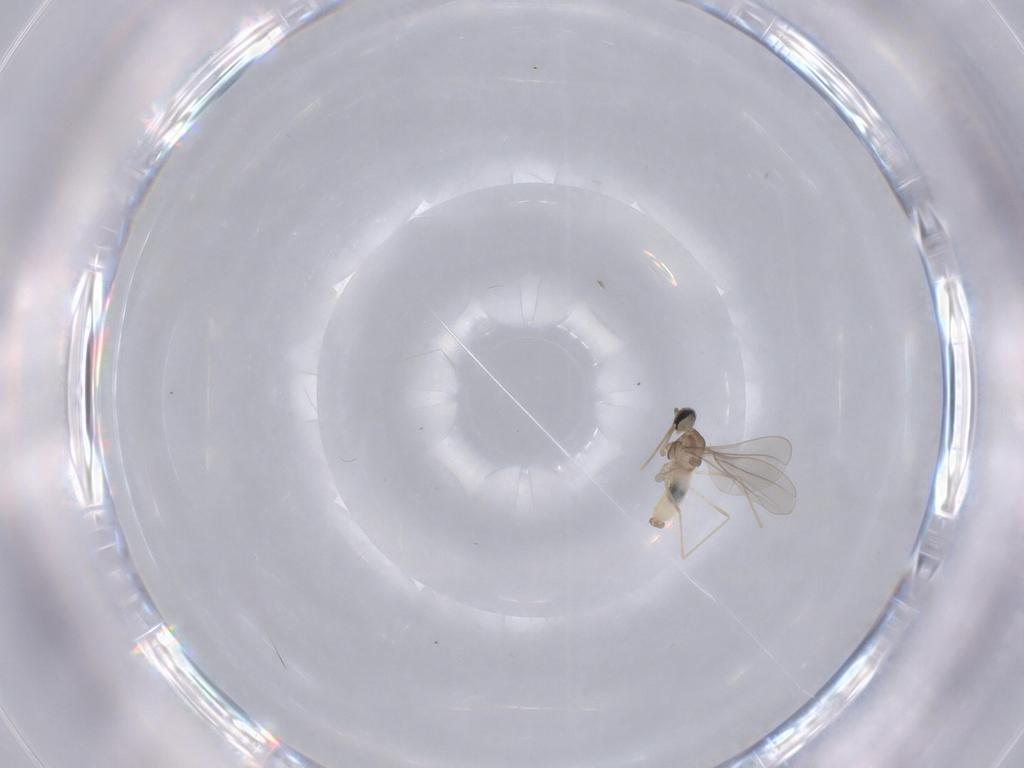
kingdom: Animalia
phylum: Arthropoda
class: Insecta
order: Diptera
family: Cecidomyiidae
